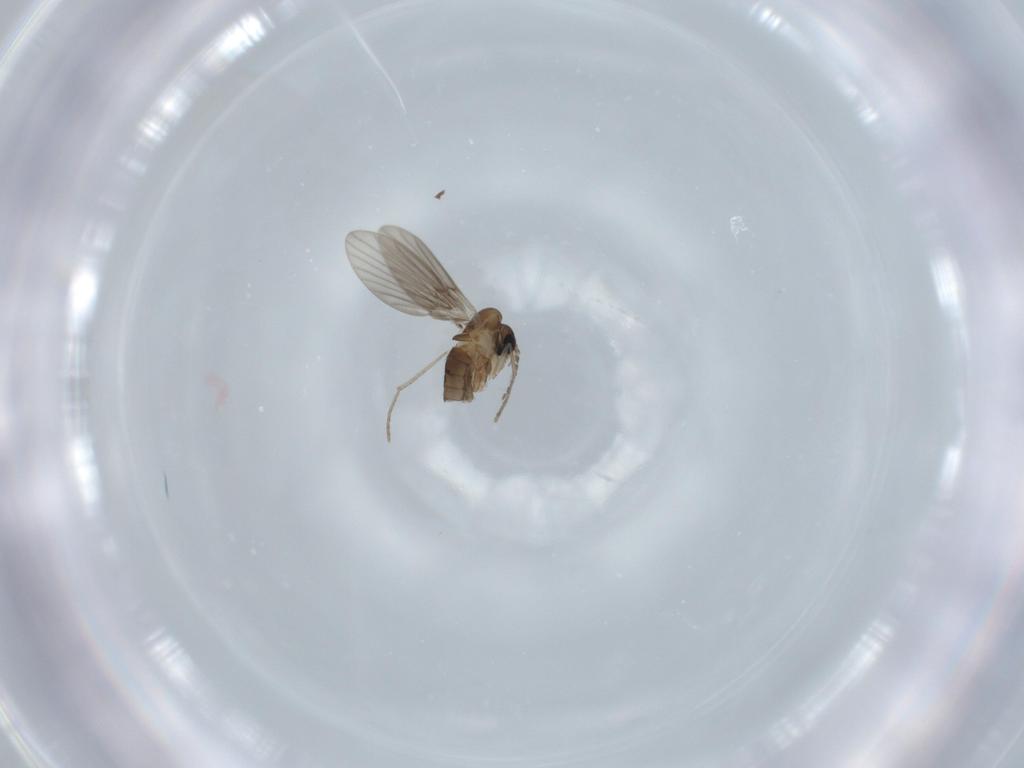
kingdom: Animalia
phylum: Arthropoda
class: Insecta
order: Diptera
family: Psychodidae
